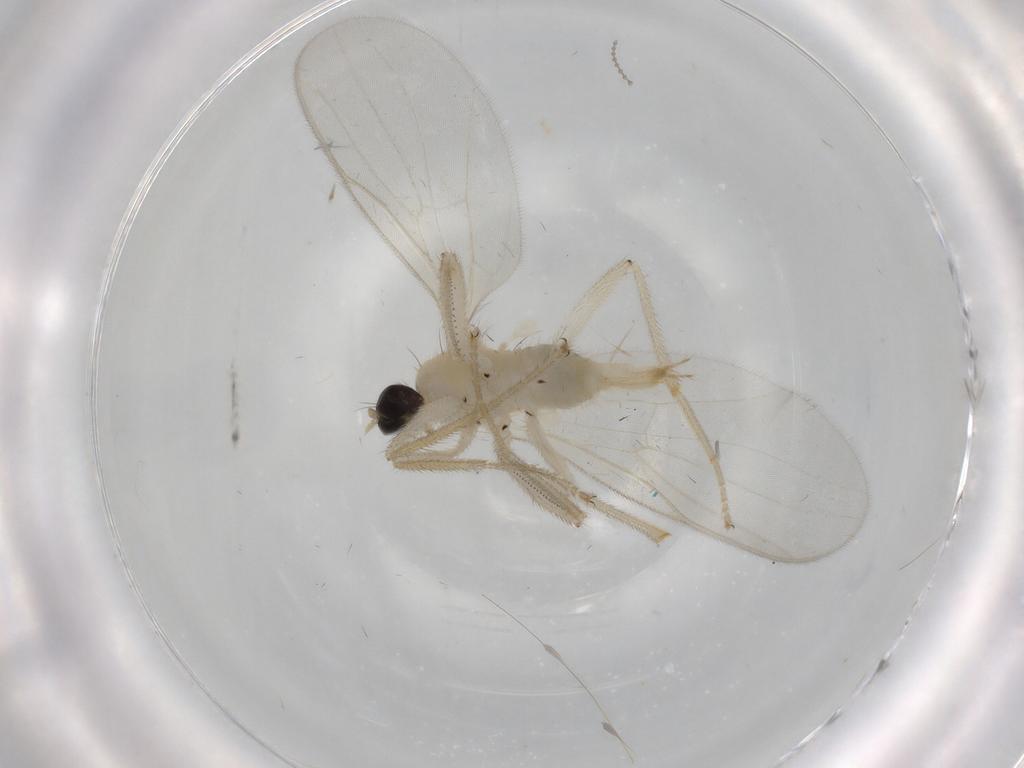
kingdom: Animalia
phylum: Arthropoda
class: Insecta
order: Diptera
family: Hybotidae
